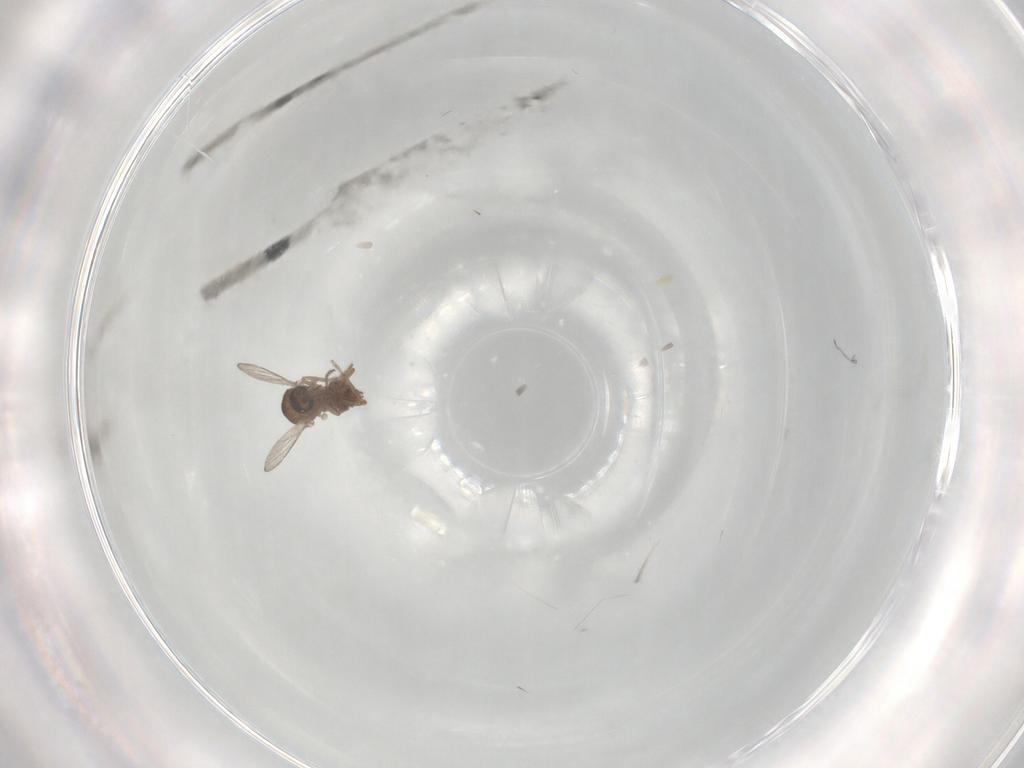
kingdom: Animalia
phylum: Arthropoda
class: Insecta
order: Diptera
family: Ceratopogonidae
